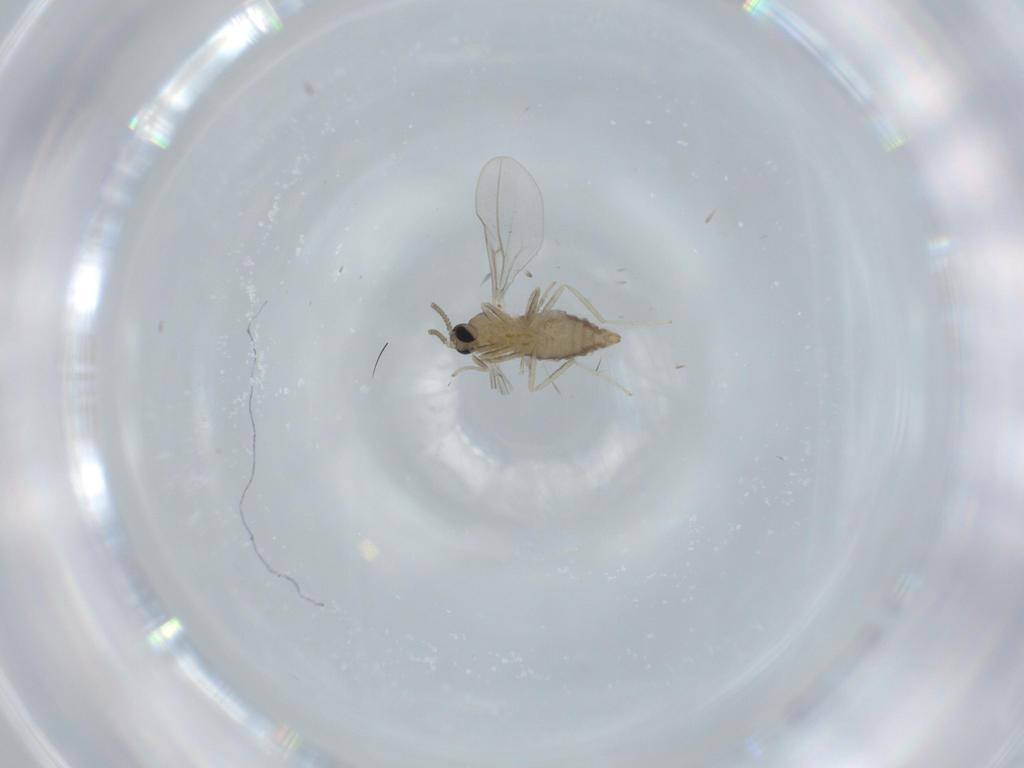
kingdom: Animalia
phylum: Arthropoda
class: Insecta
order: Diptera
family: Cecidomyiidae
